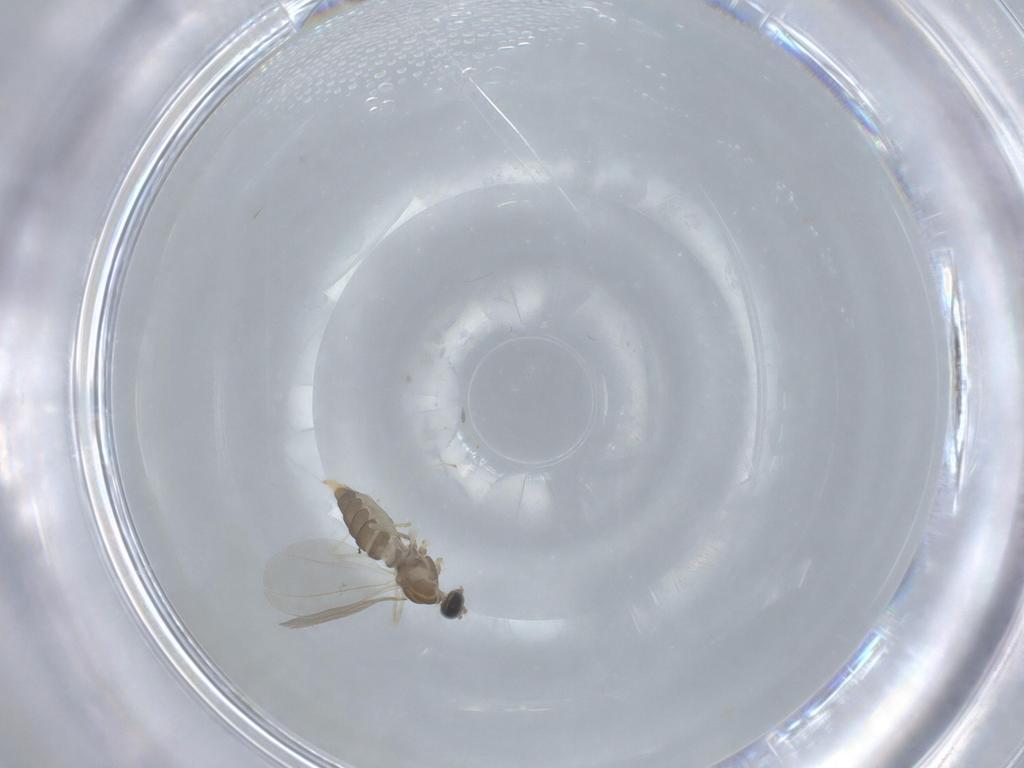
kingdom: Animalia
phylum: Arthropoda
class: Insecta
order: Diptera
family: Cecidomyiidae
